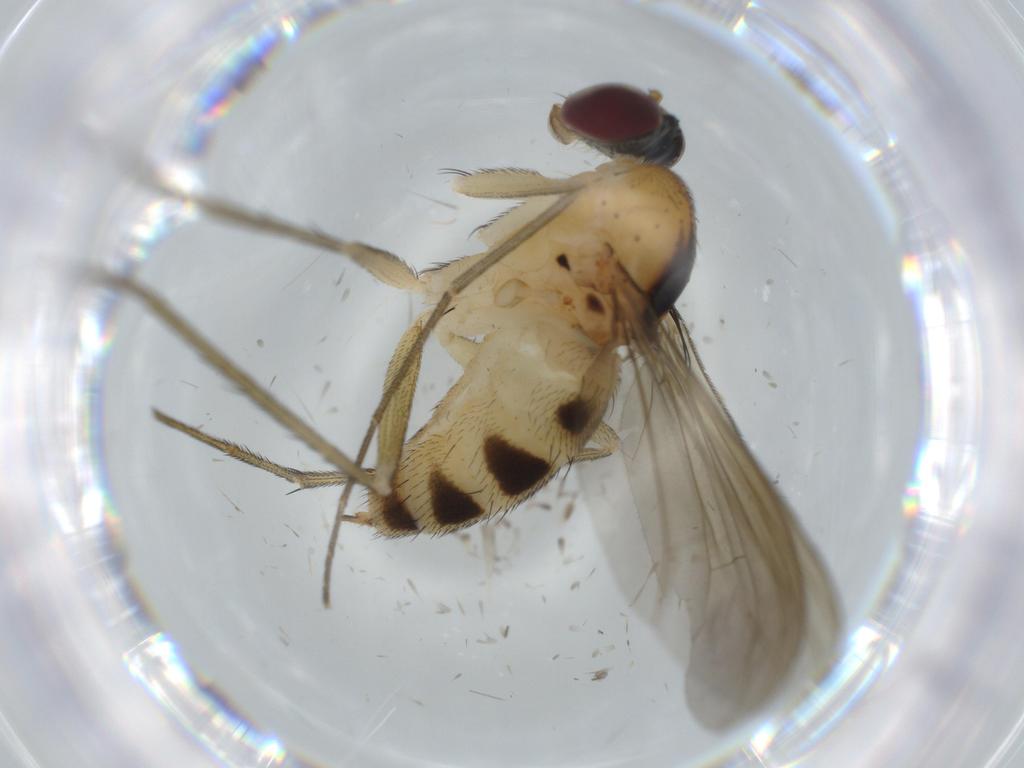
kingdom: Animalia
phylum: Arthropoda
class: Insecta
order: Diptera
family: Dolichopodidae
